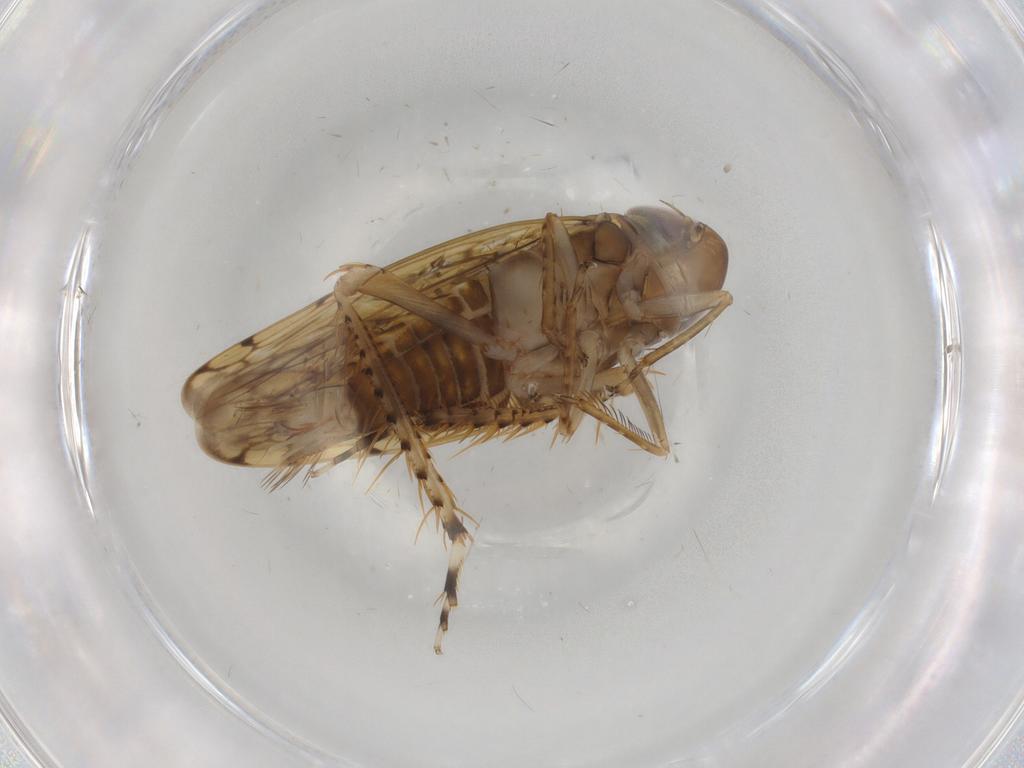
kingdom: Animalia
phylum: Arthropoda
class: Insecta
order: Hemiptera
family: Cicadellidae
